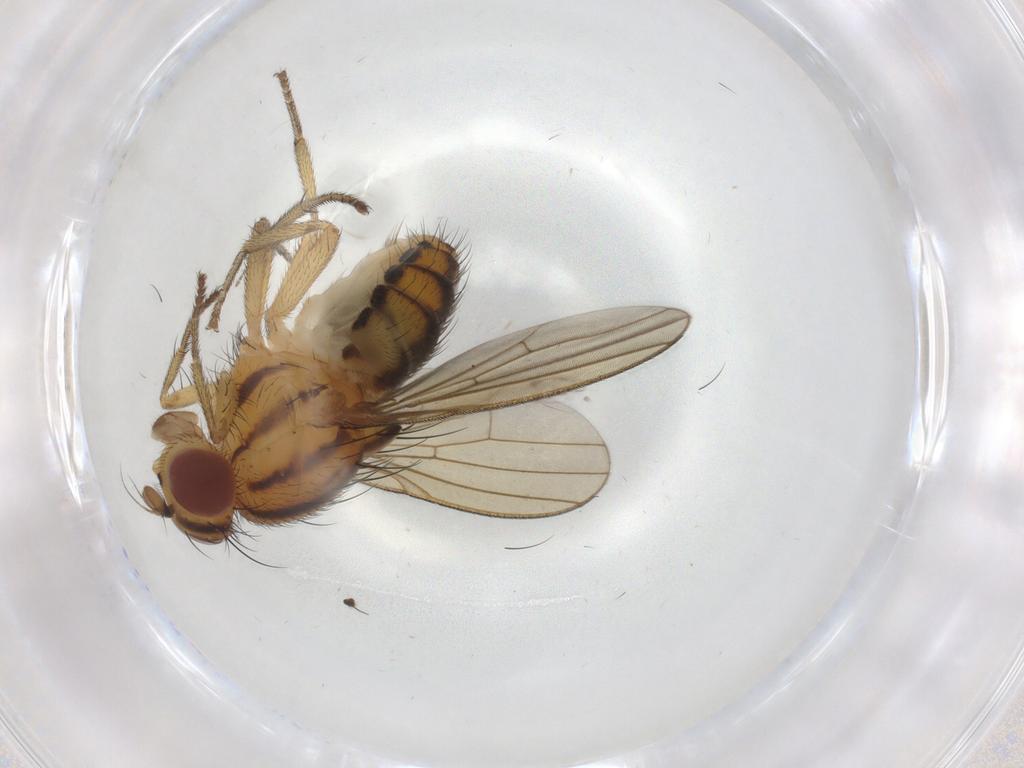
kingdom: Animalia
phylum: Arthropoda
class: Insecta
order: Diptera
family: Ceratopogonidae
